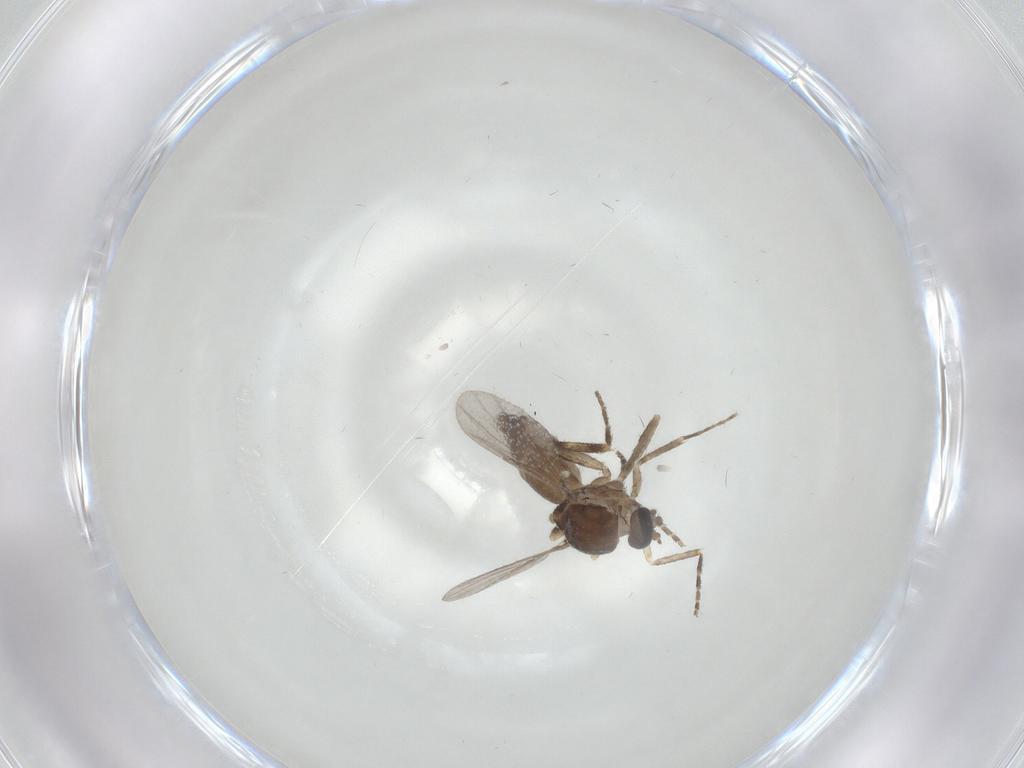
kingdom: Animalia
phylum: Arthropoda
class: Insecta
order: Diptera
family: Ceratopogonidae
